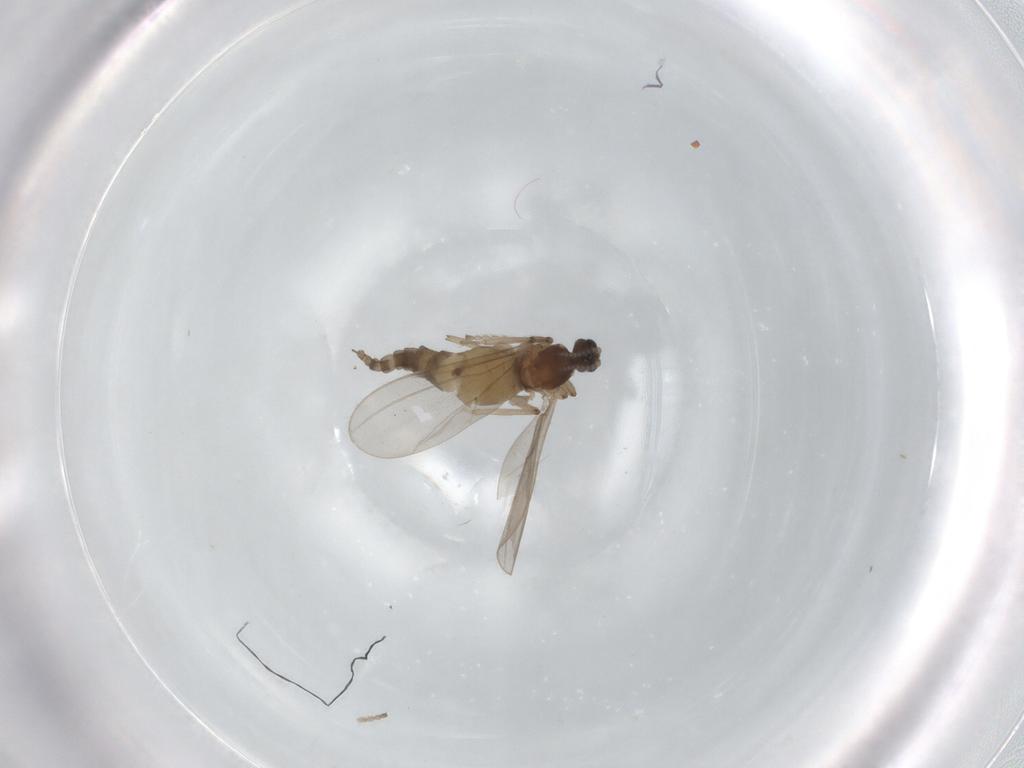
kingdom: Animalia
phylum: Arthropoda
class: Insecta
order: Diptera
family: Cecidomyiidae
